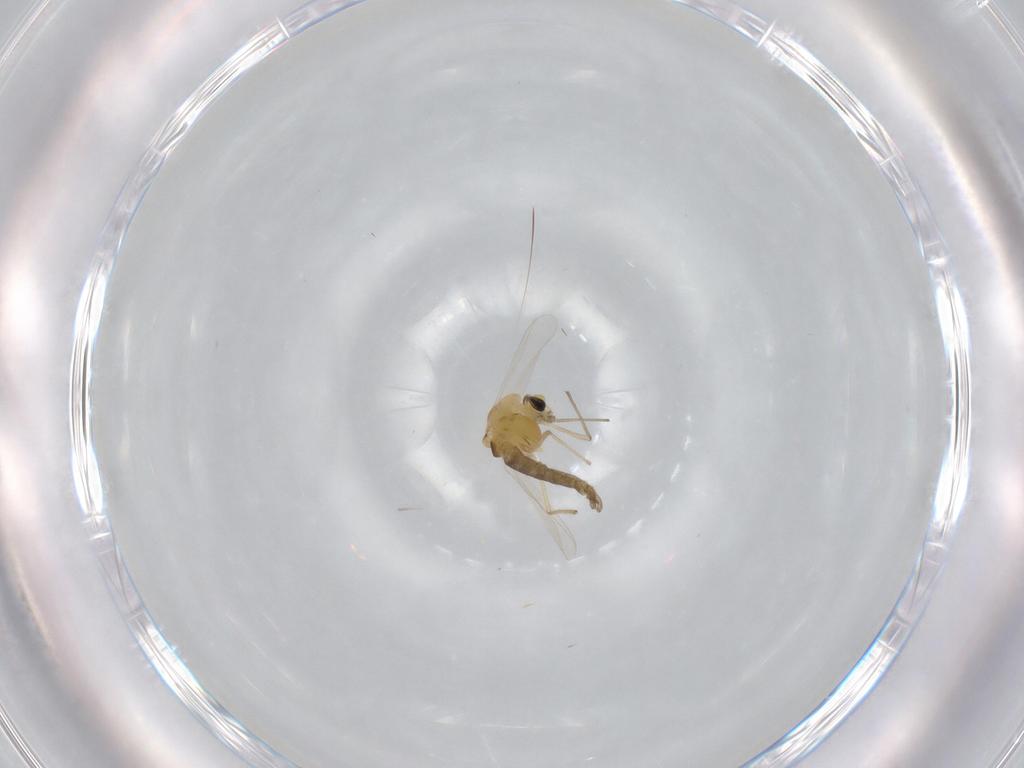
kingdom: Animalia
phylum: Arthropoda
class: Insecta
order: Diptera
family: Chironomidae
